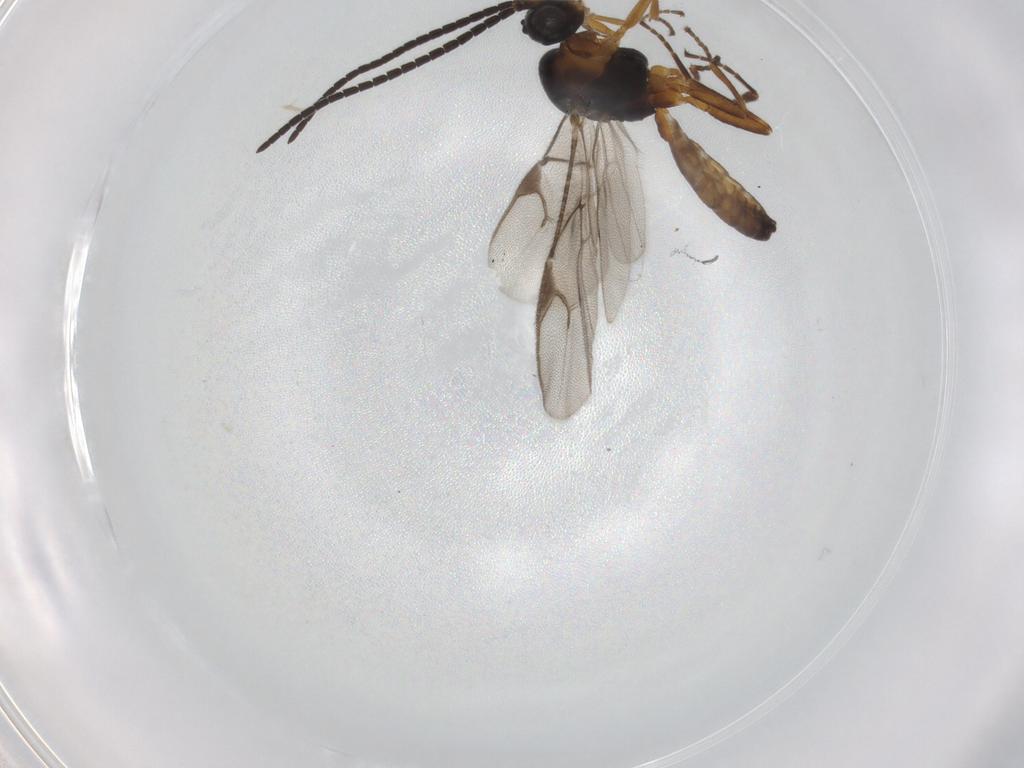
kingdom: Animalia
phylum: Arthropoda
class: Insecta
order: Hymenoptera
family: Braconidae
